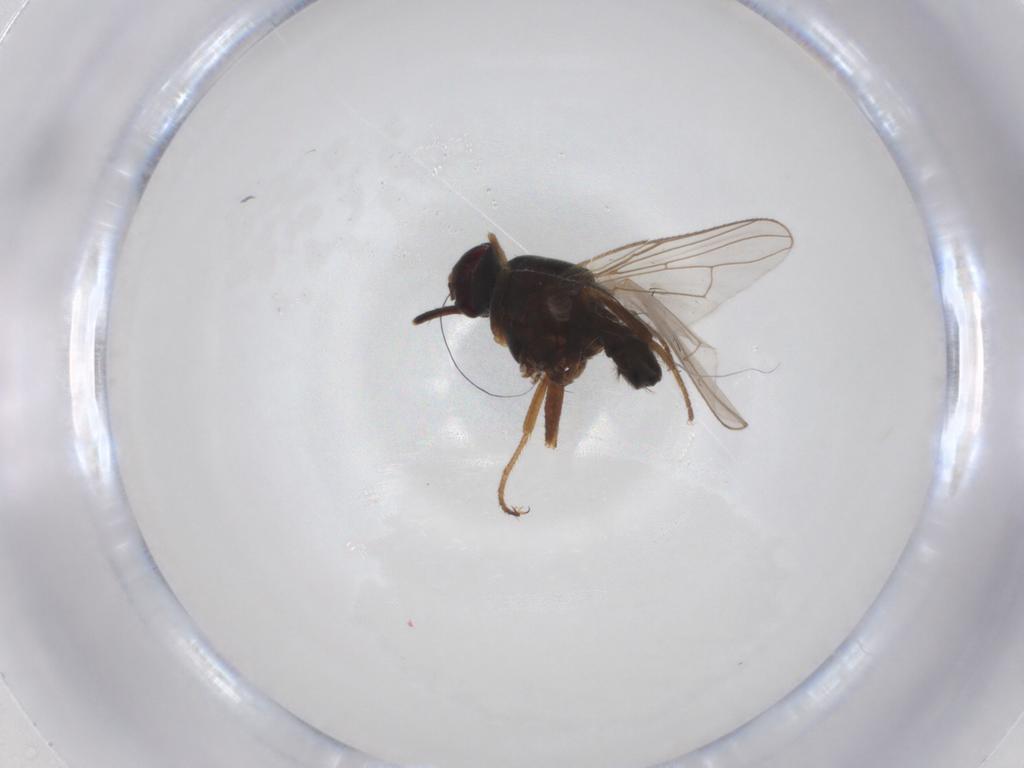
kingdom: Animalia
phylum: Arthropoda
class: Insecta
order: Diptera
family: Muscidae
